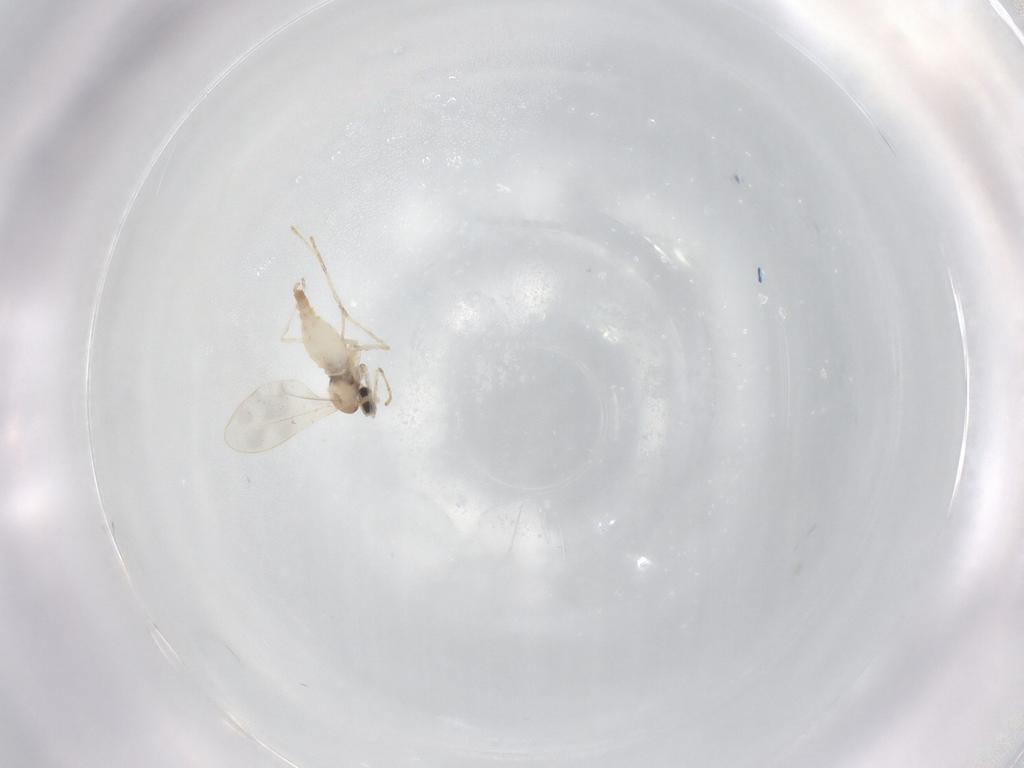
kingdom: Animalia
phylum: Arthropoda
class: Insecta
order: Diptera
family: Cecidomyiidae
